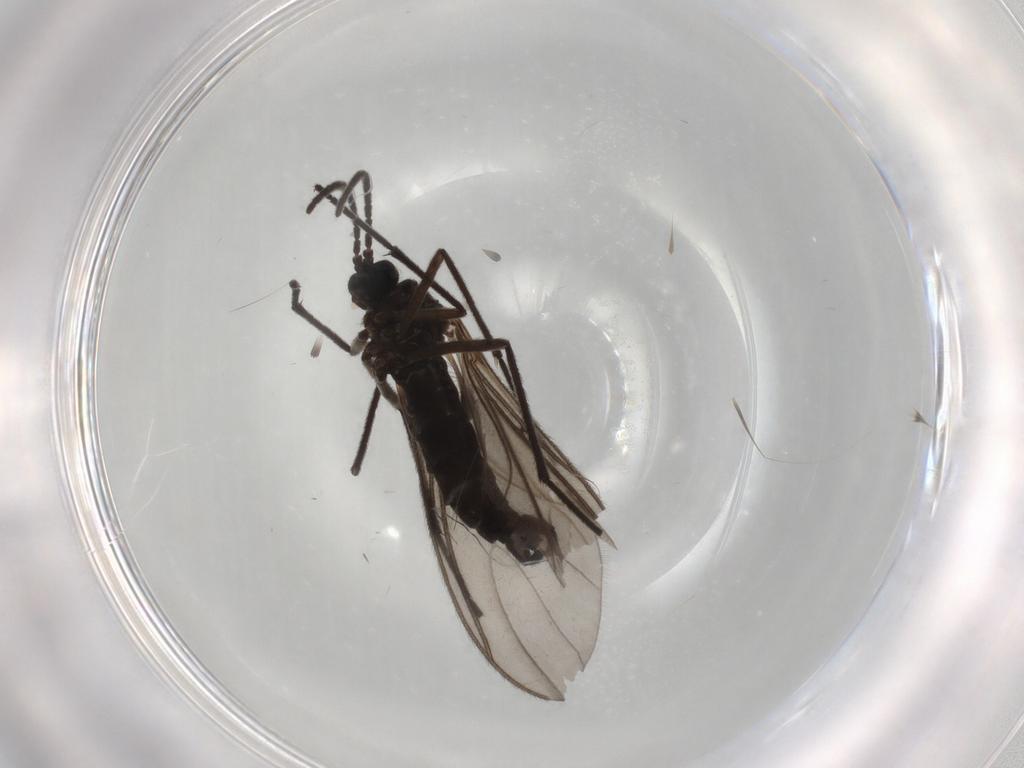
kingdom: Animalia
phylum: Arthropoda
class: Insecta
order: Diptera
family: Sciaridae
